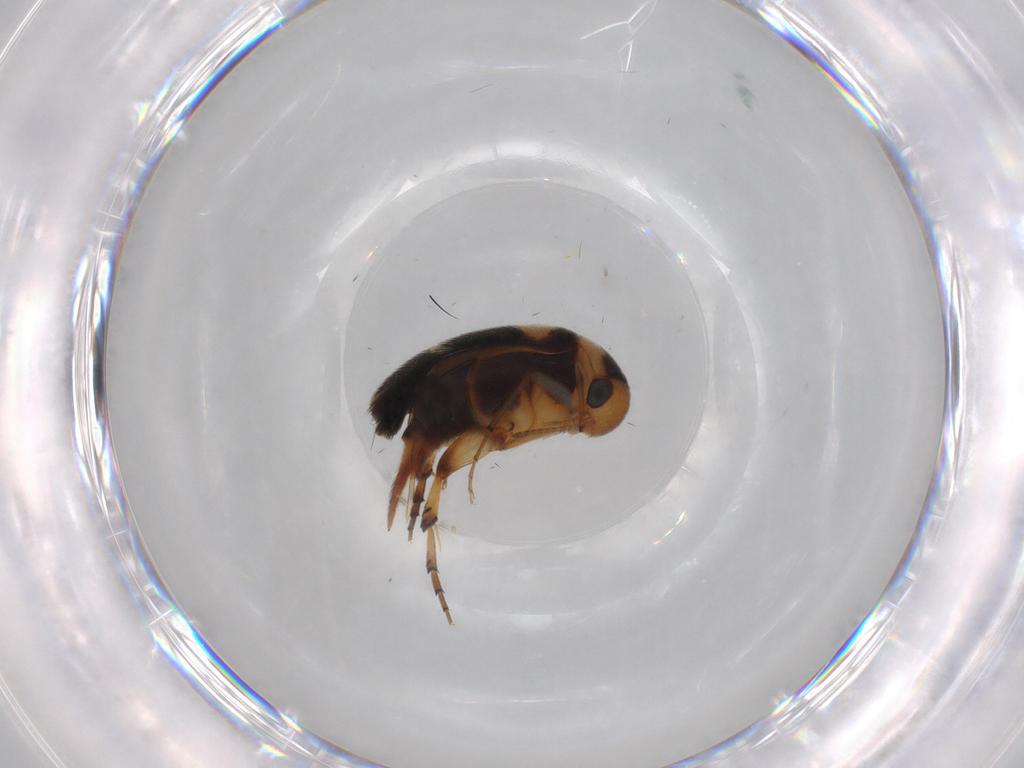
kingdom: Animalia
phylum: Arthropoda
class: Insecta
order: Coleoptera
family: Mordellidae
